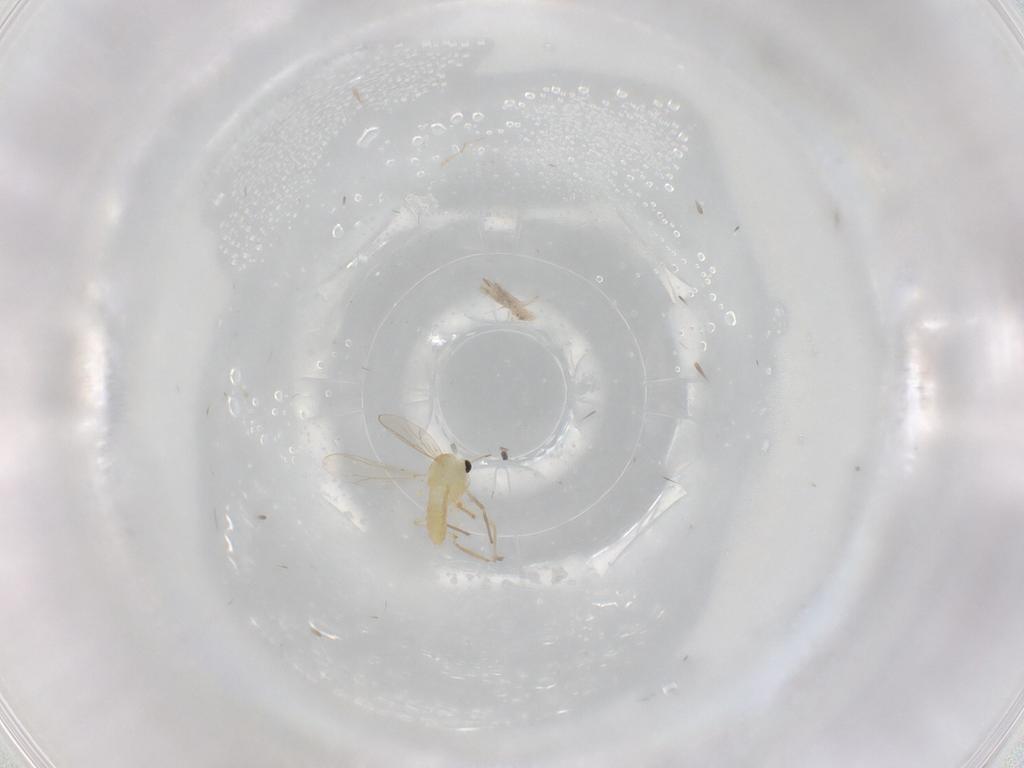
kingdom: Animalia
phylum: Arthropoda
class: Insecta
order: Diptera
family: Chironomidae
